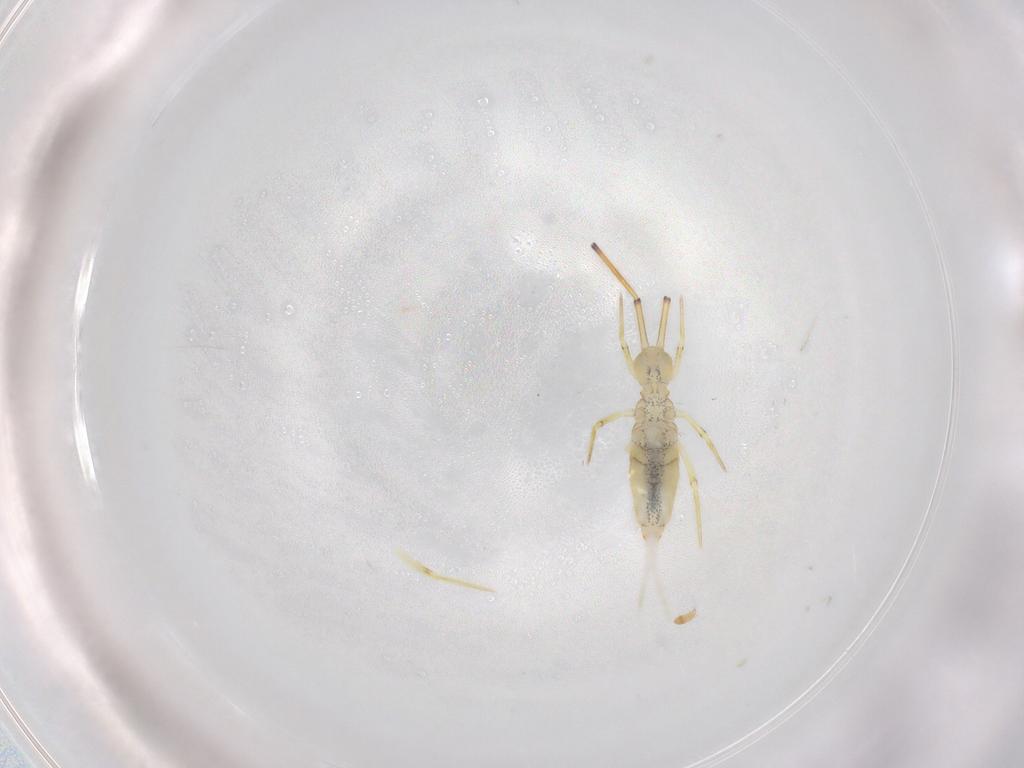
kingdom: Animalia
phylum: Arthropoda
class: Collembola
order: Entomobryomorpha
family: Entomobryidae
